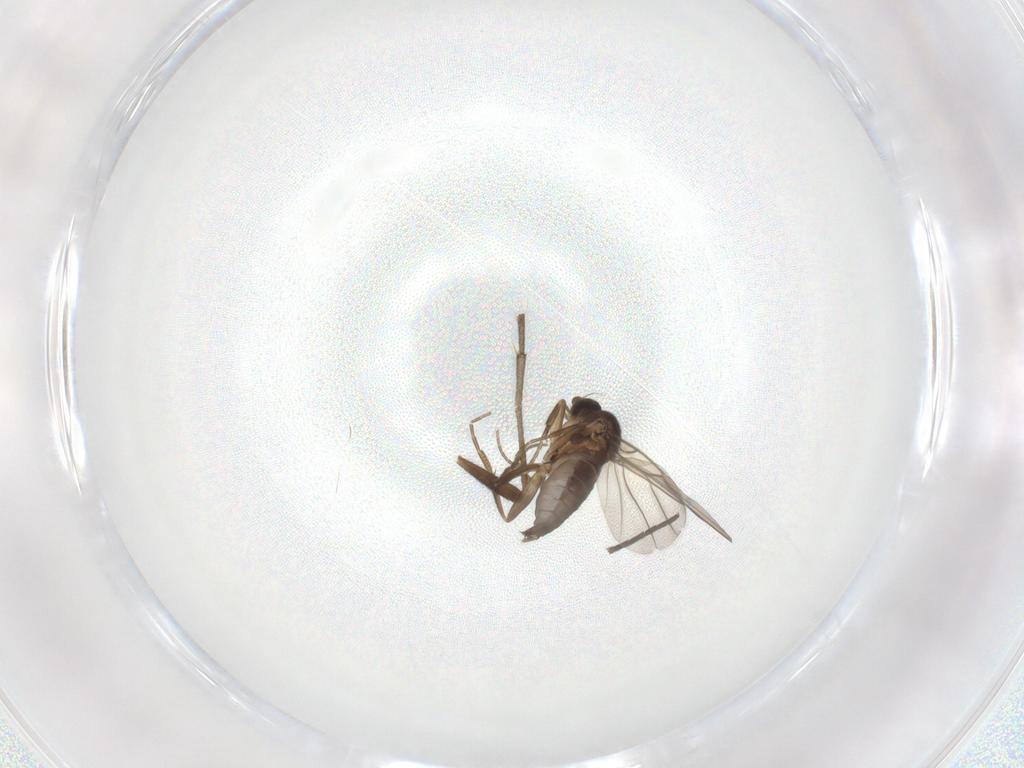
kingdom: Animalia
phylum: Arthropoda
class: Insecta
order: Diptera
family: Phoridae
